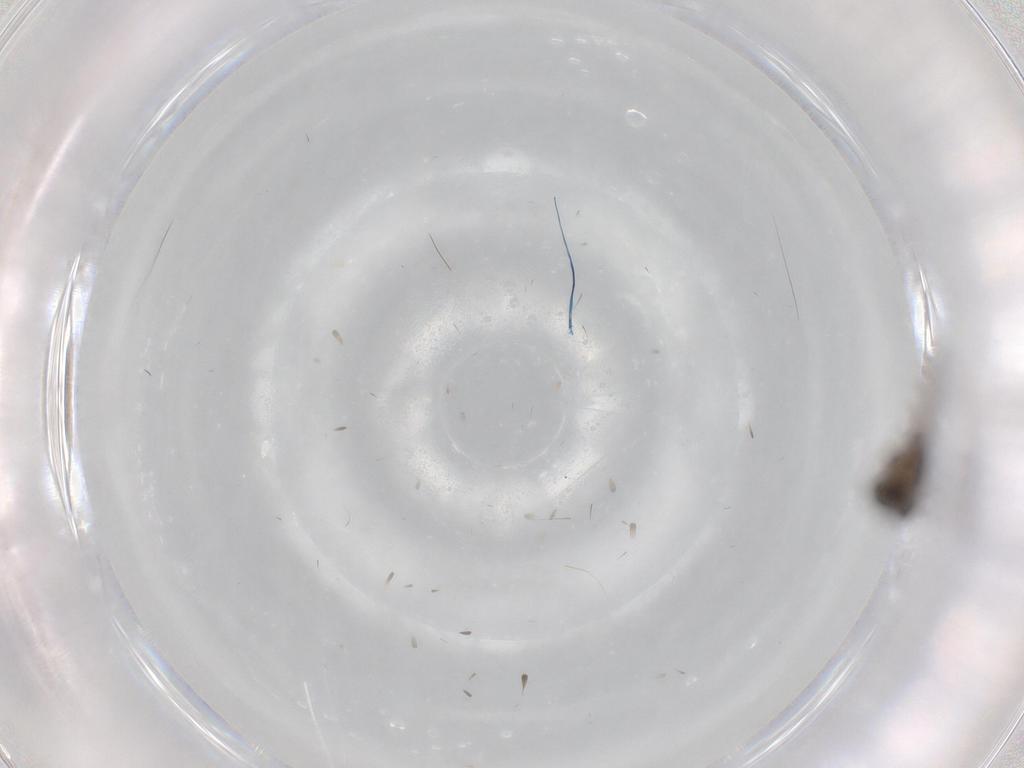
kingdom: Animalia
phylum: Arthropoda
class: Insecta
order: Diptera
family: Phoridae
